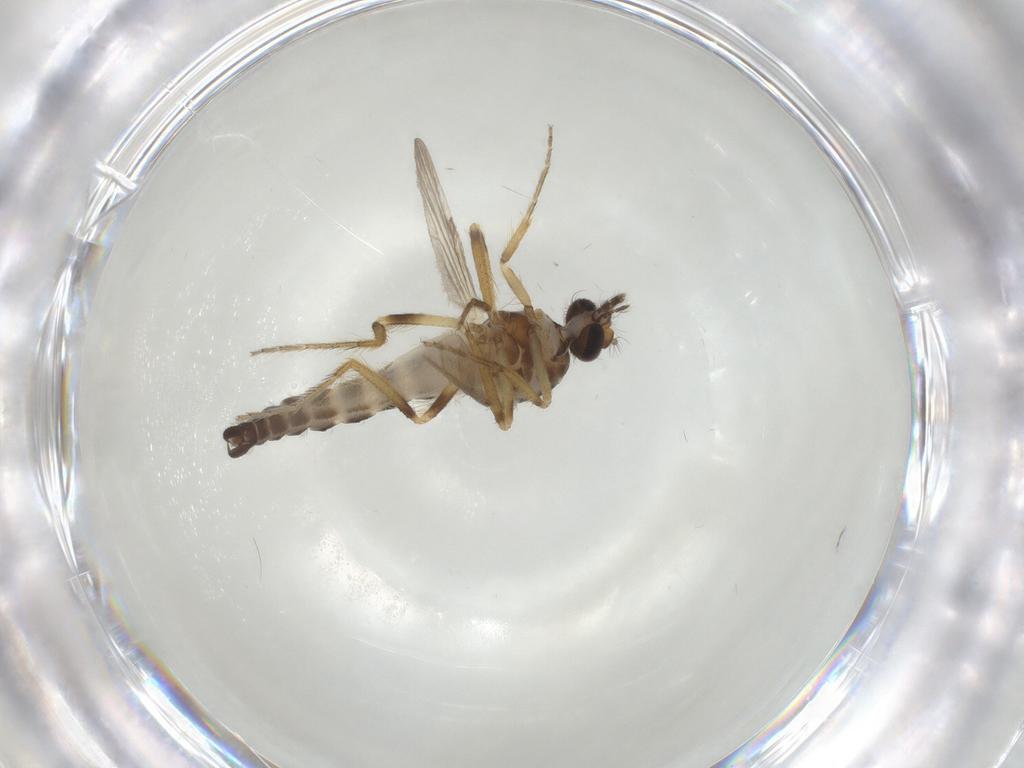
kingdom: Animalia
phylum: Arthropoda
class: Insecta
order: Diptera
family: Ceratopogonidae
